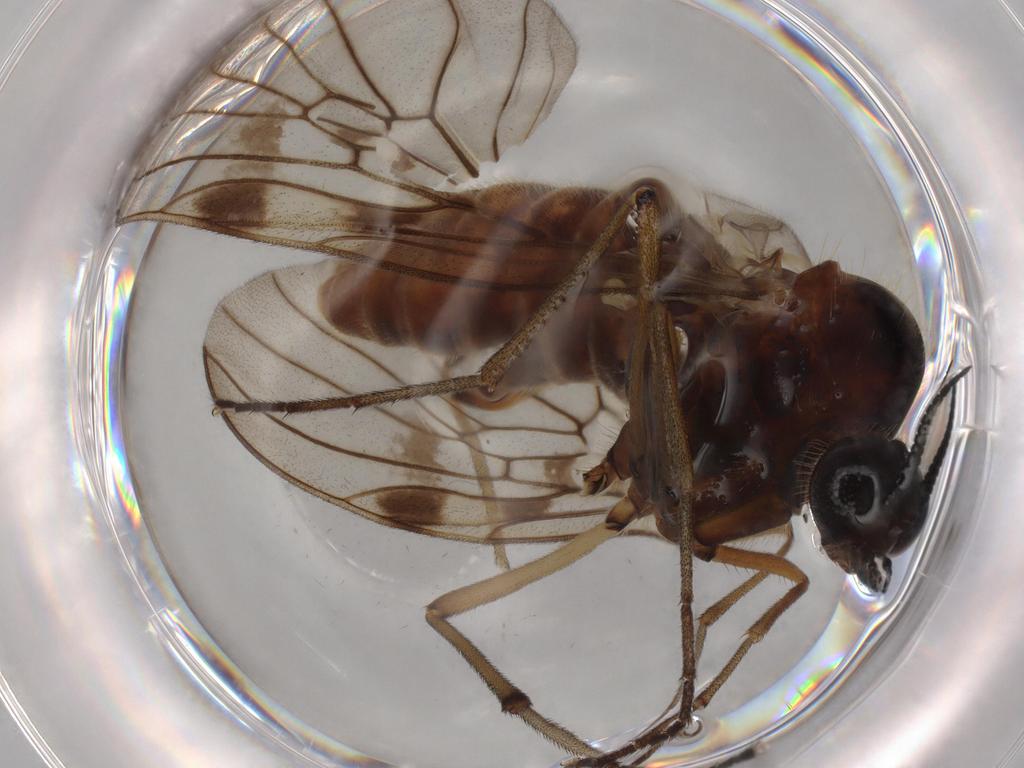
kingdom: Animalia
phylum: Arthropoda
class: Insecta
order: Diptera
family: Anisopodidae
